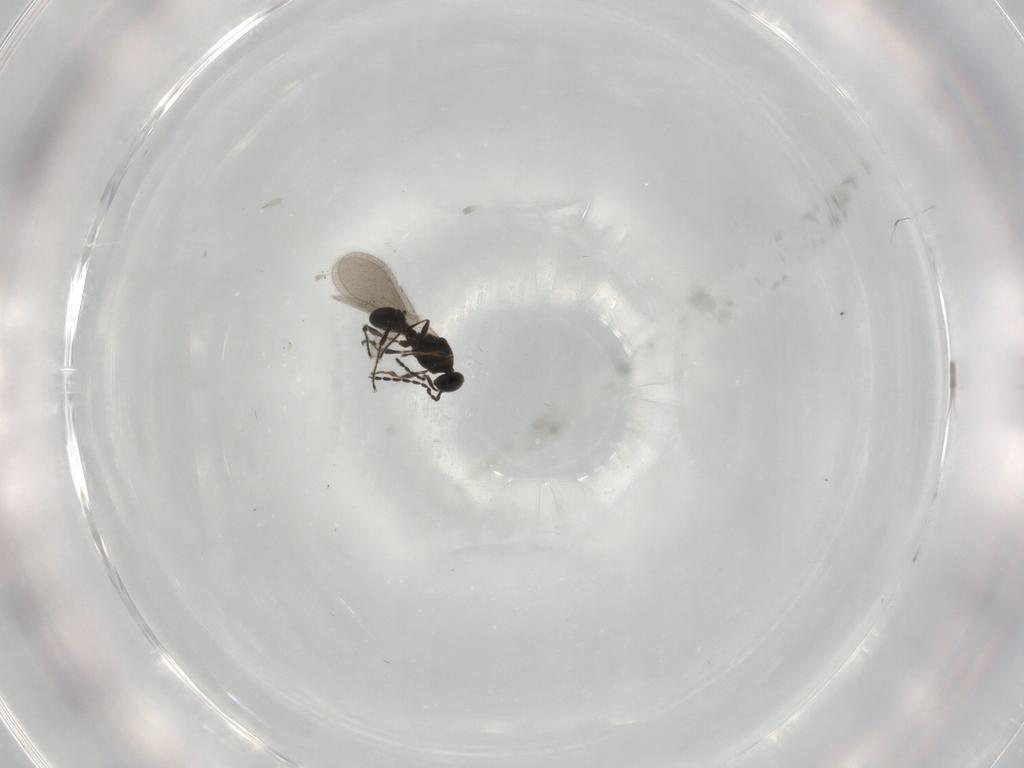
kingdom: Animalia
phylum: Arthropoda
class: Insecta
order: Hymenoptera
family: Platygastridae
